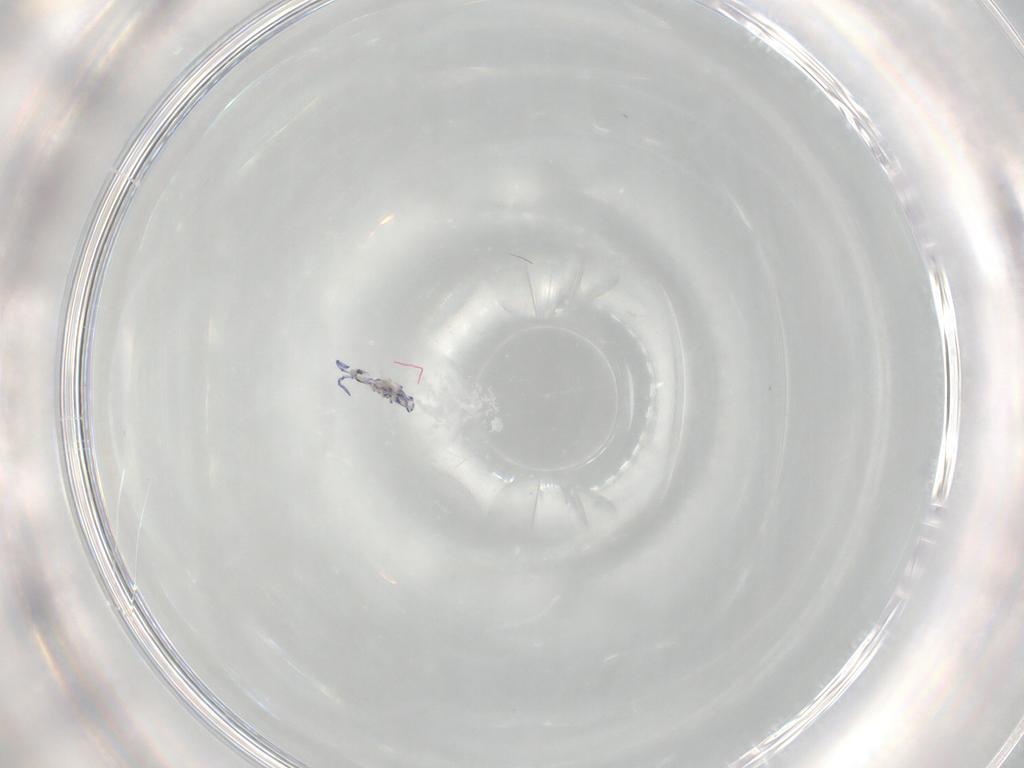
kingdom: Animalia
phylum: Arthropoda
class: Collembola
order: Entomobryomorpha
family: Entomobryidae
